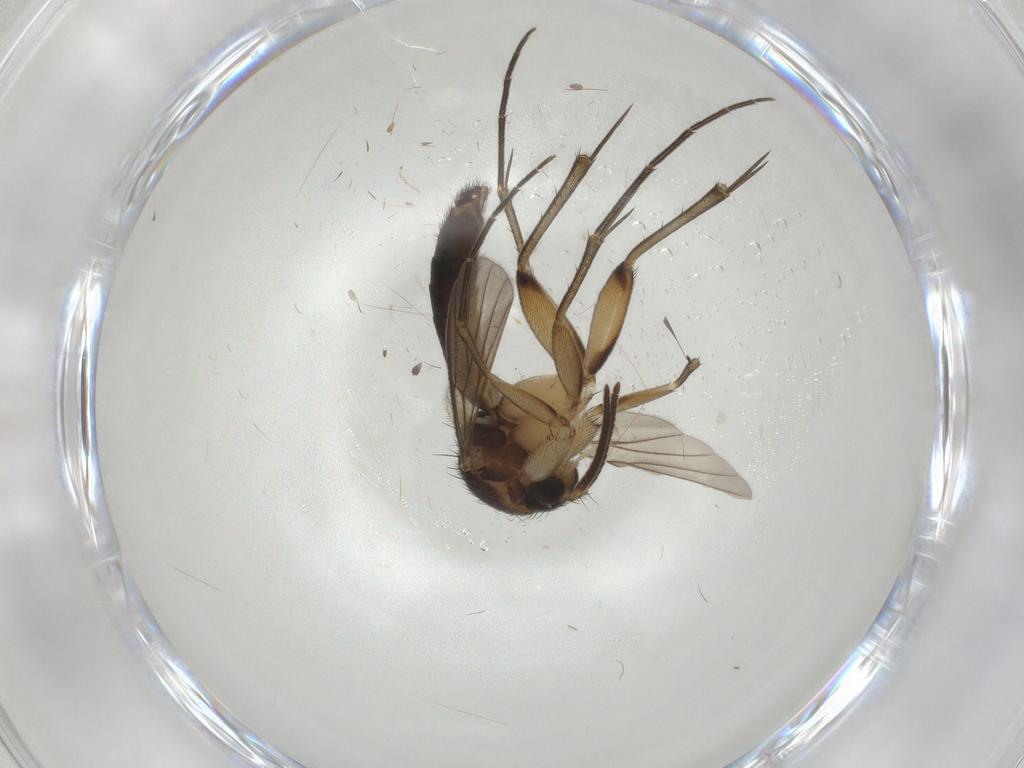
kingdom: Animalia
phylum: Arthropoda
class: Insecta
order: Diptera
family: Mycetophilidae
